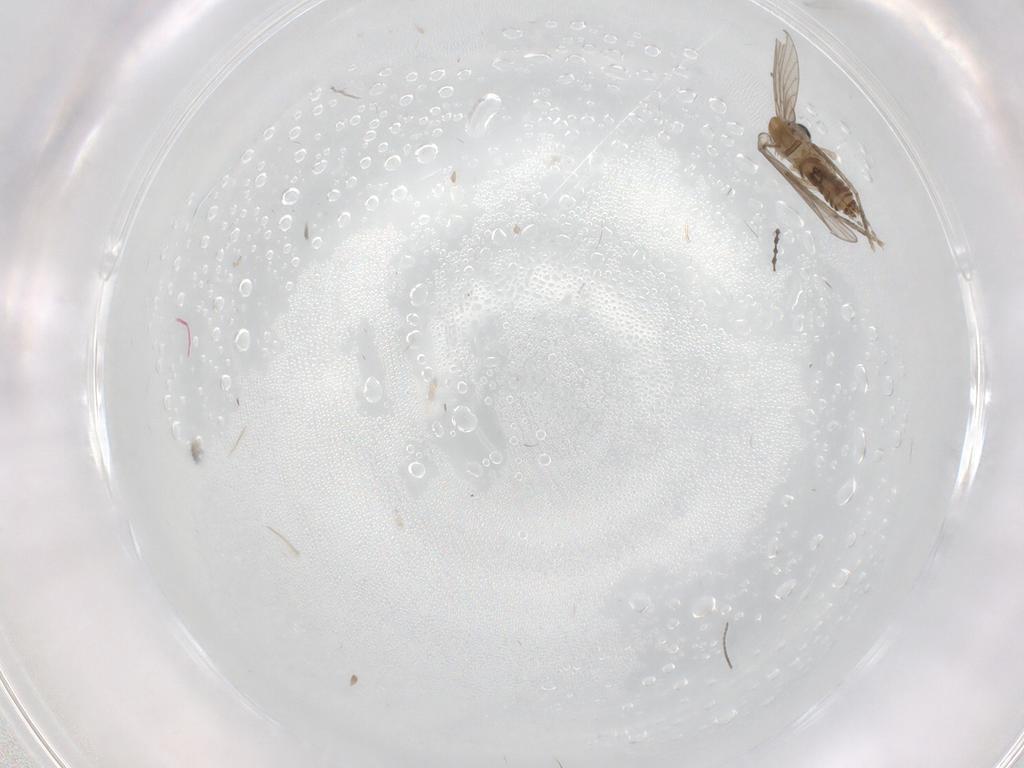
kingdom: Animalia
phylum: Arthropoda
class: Insecta
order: Diptera
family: Cecidomyiidae
